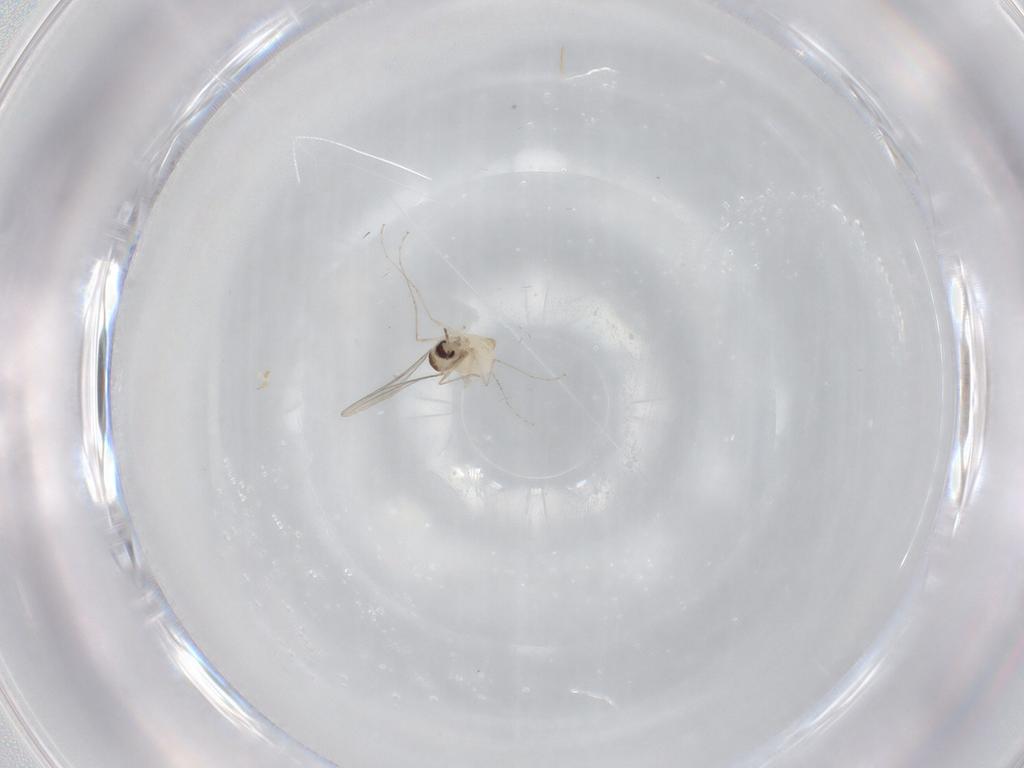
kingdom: Animalia
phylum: Arthropoda
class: Insecta
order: Diptera
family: Cecidomyiidae
